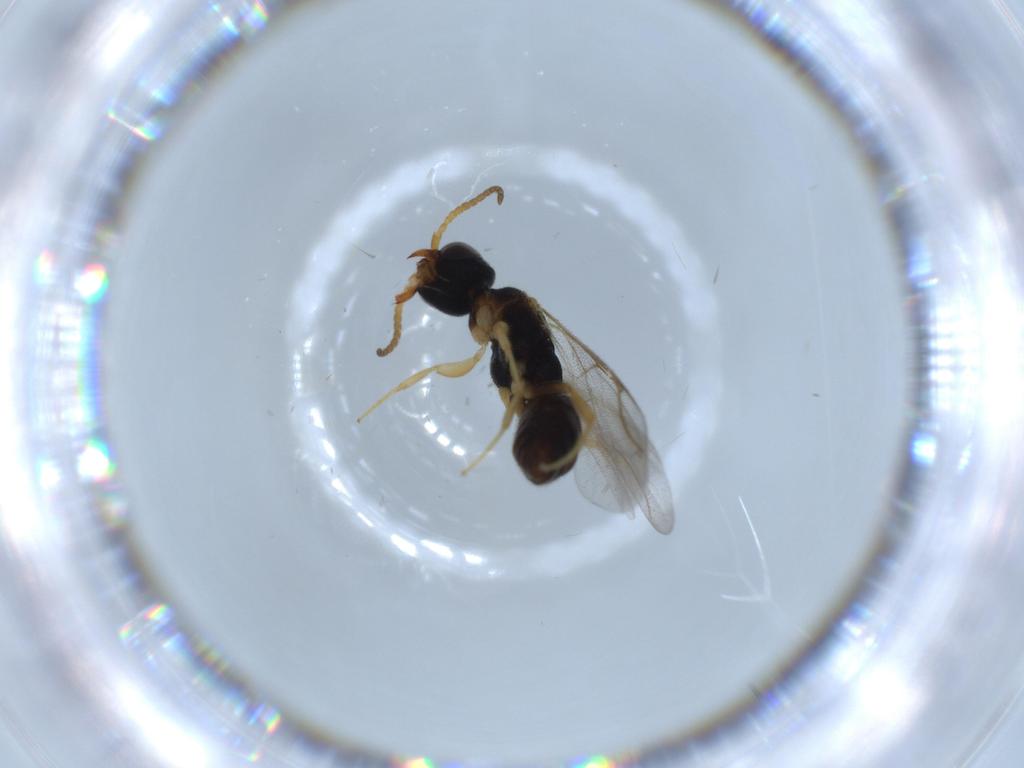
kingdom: Animalia
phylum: Arthropoda
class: Insecta
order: Hymenoptera
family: Bethylidae
